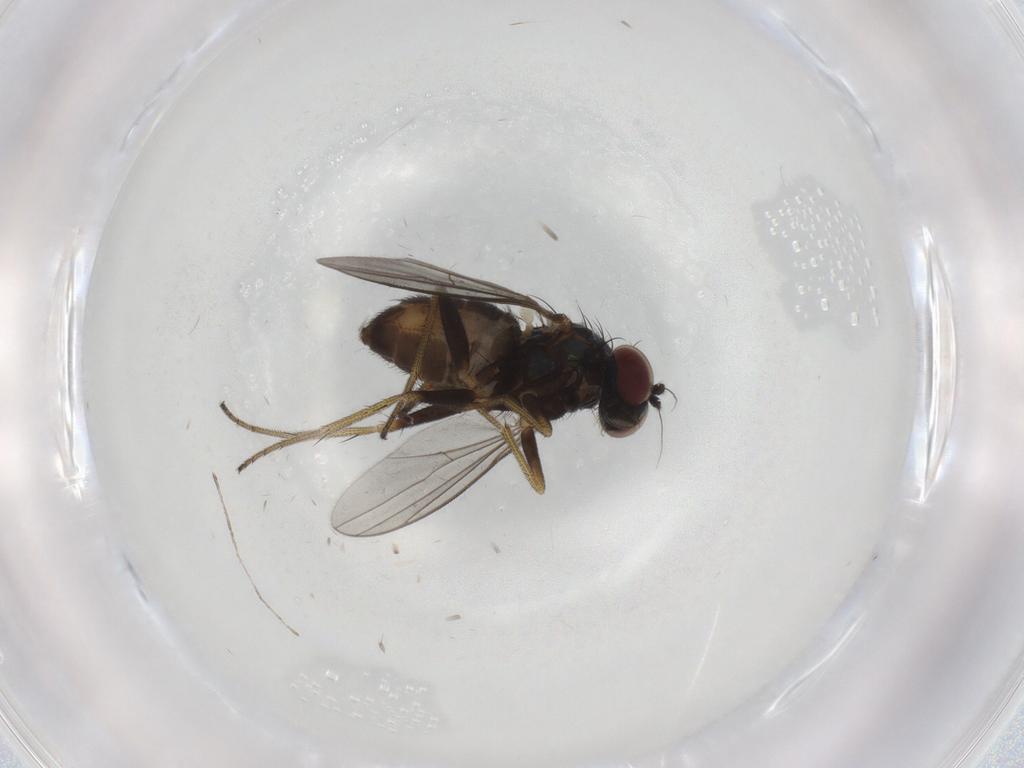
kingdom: Animalia
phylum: Arthropoda
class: Insecta
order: Diptera
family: Dolichopodidae
